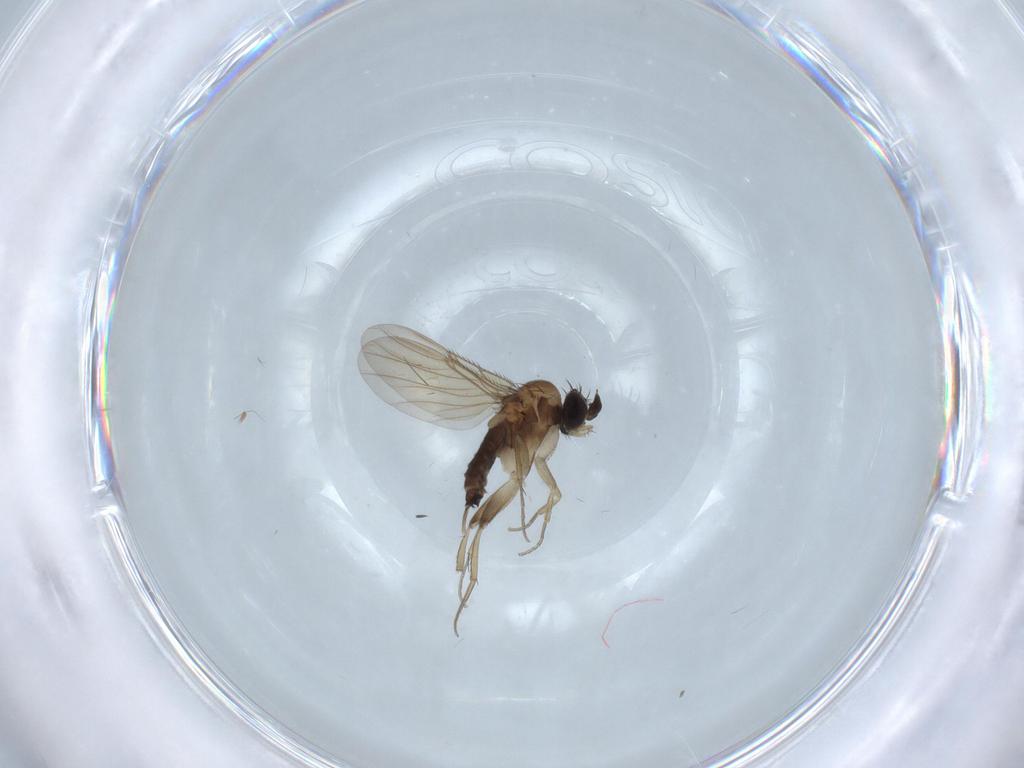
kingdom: Animalia
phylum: Arthropoda
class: Insecta
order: Diptera
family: Phoridae
